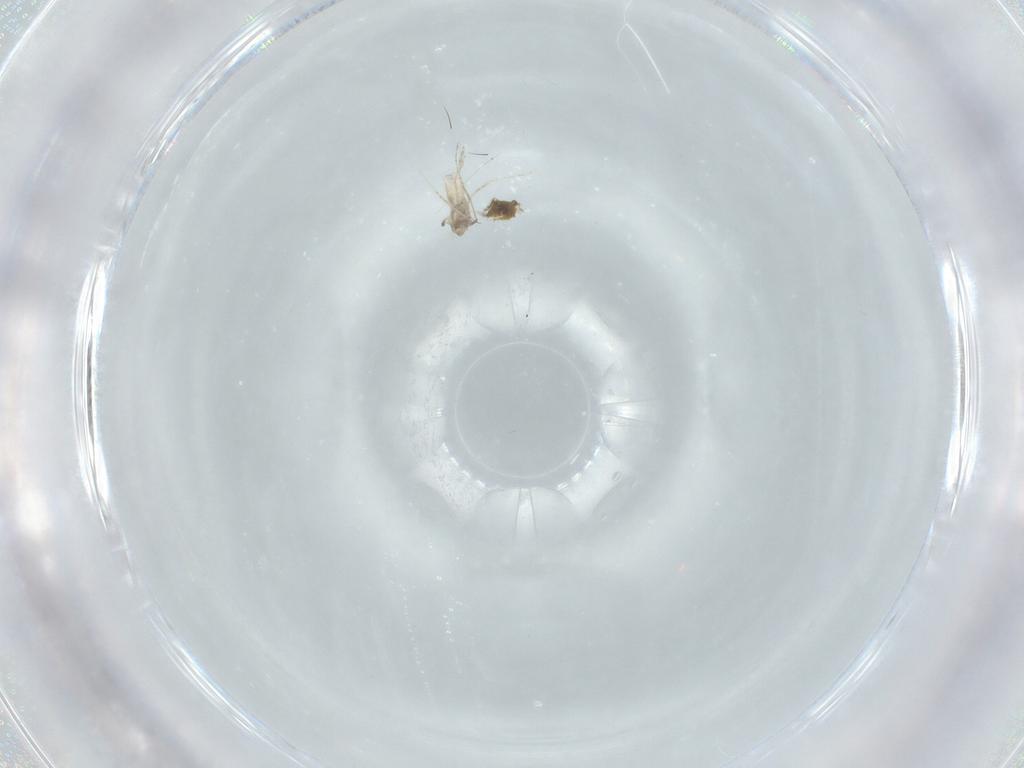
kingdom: Animalia
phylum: Arthropoda
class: Insecta
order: Diptera
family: Cecidomyiidae
